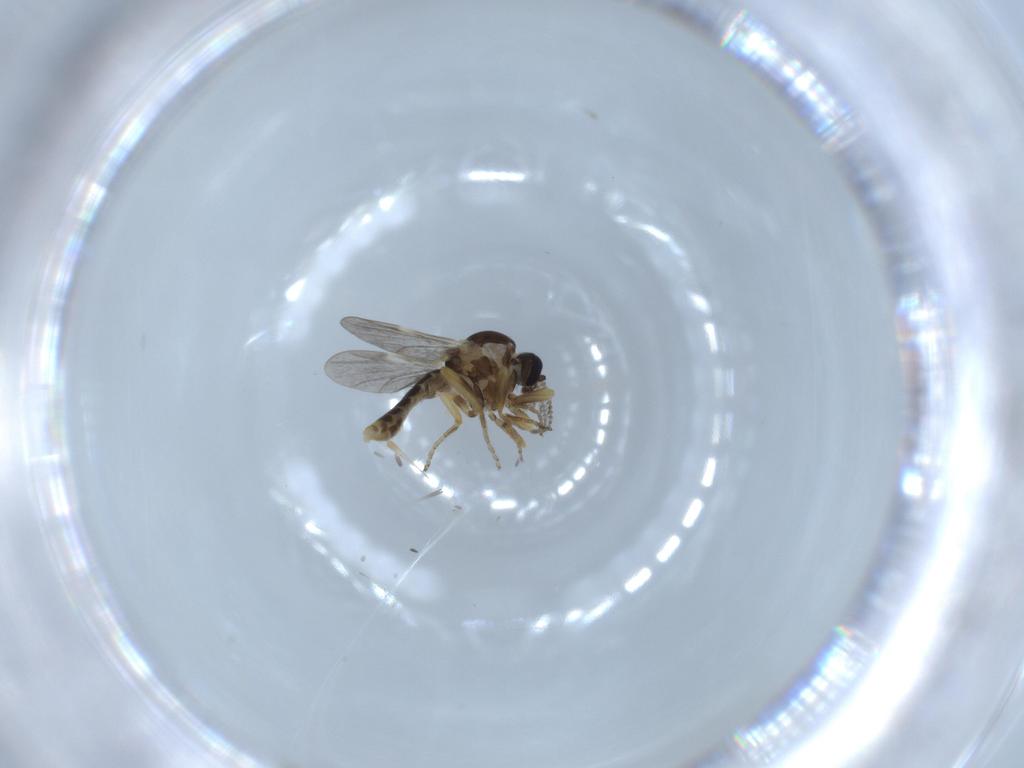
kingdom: Animalia
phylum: Arthropoda
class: Insecta
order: Diptera
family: Ceratopogonidae
